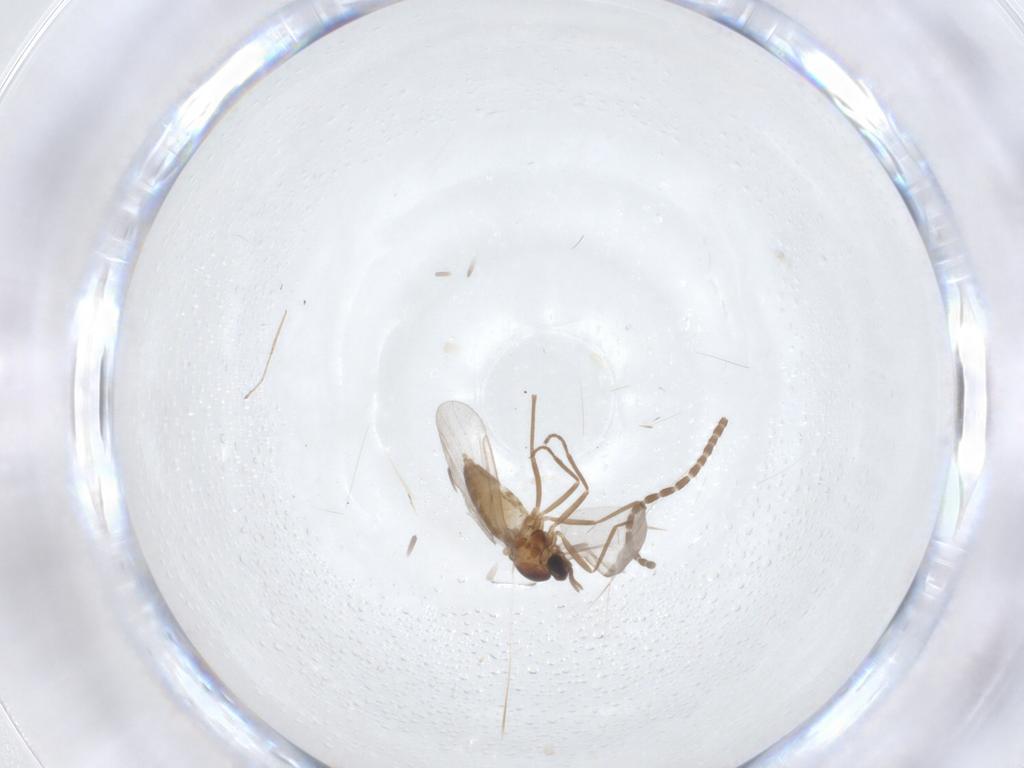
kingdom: Animalia
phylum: Arthropoda
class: Insecta
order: Diptera
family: Cecidomyiidae
